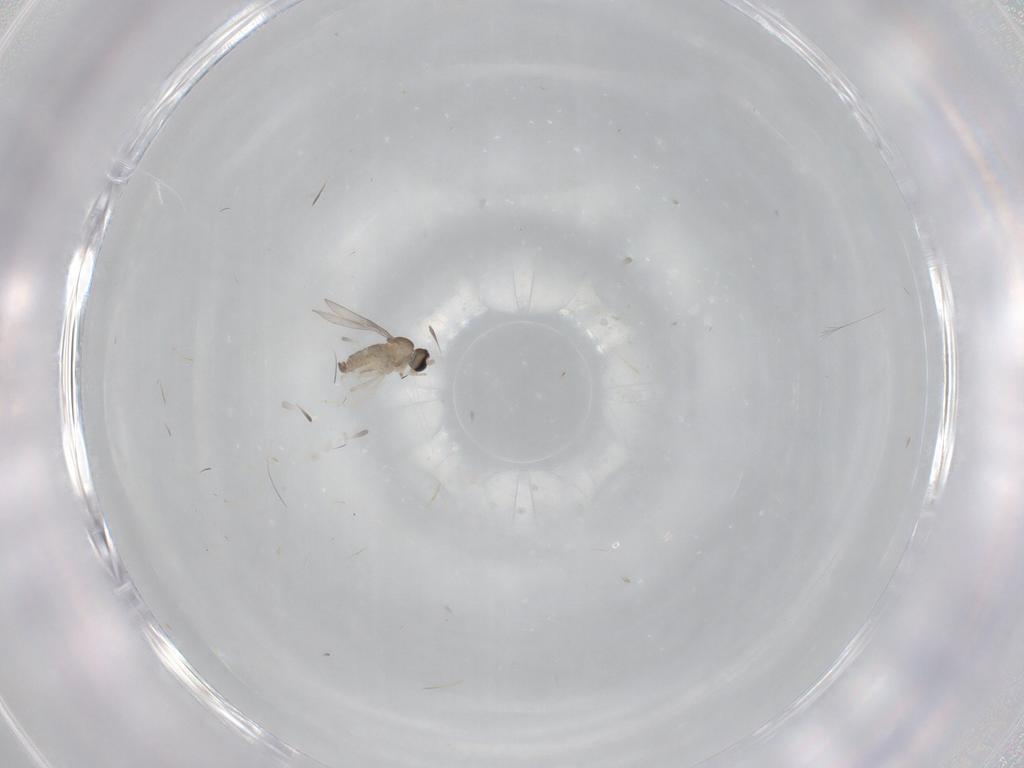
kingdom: Animalia
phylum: Arthropoda
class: Insecta
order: Diptera
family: Cecidomyiidae
